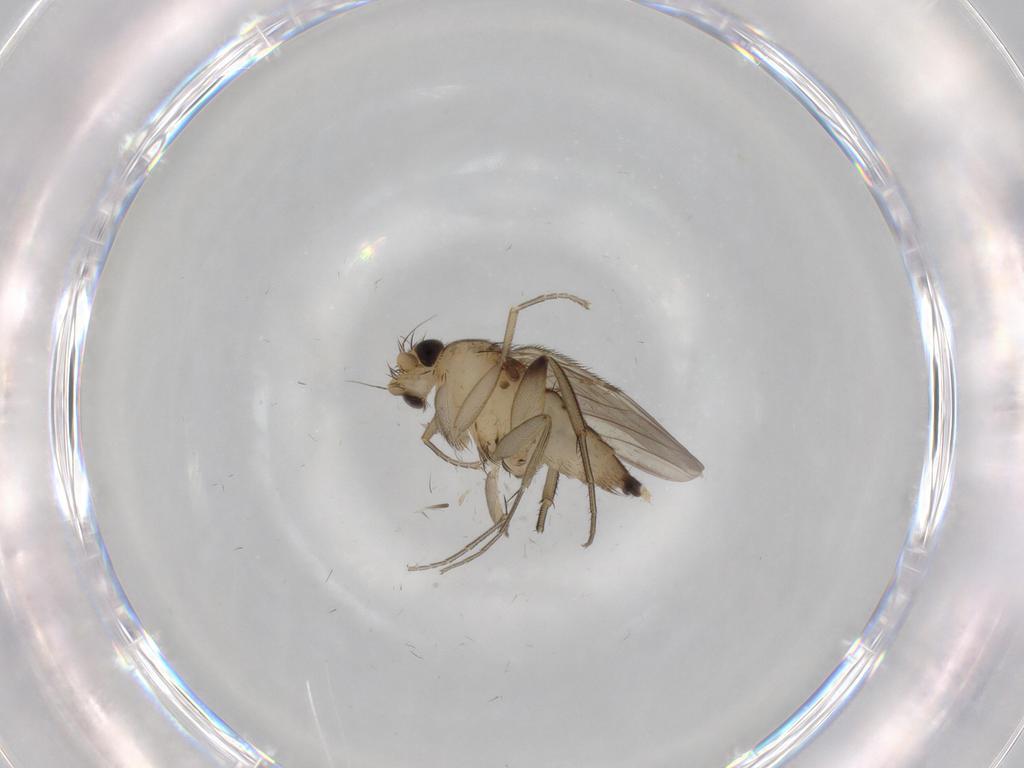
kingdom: Animalia
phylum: Arthropoda
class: Insecta
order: Diptera
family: Phoridae
